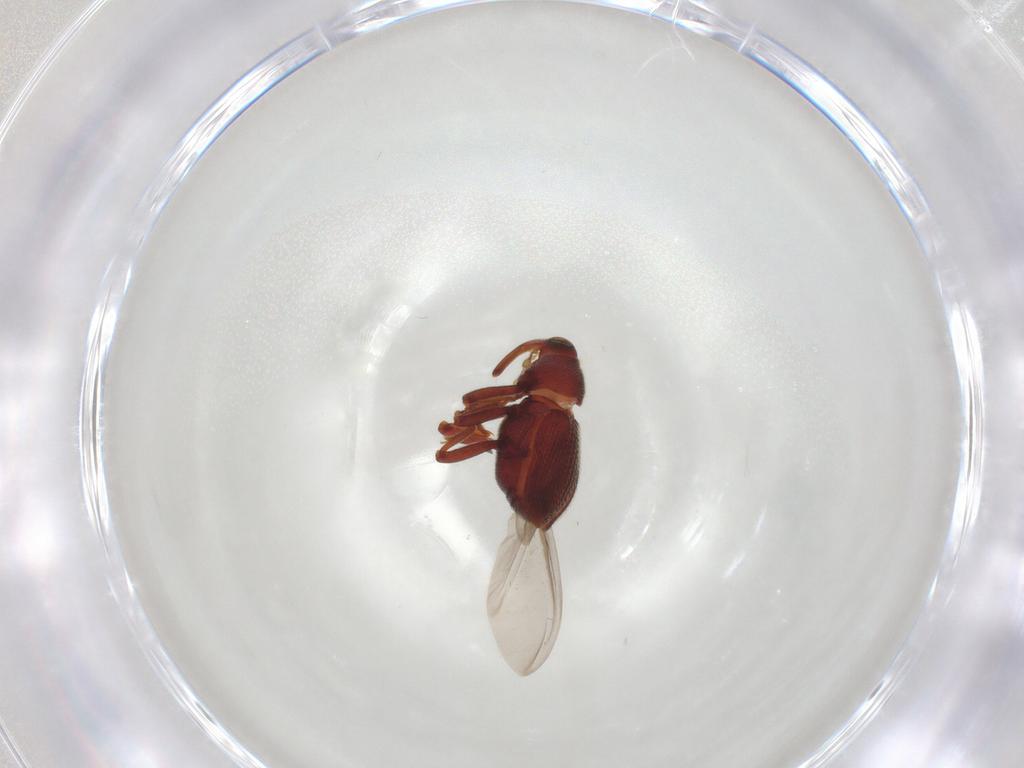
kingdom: Animalia
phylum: Arthropoda
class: Insecta
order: Coleoptera
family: Curculionidae
